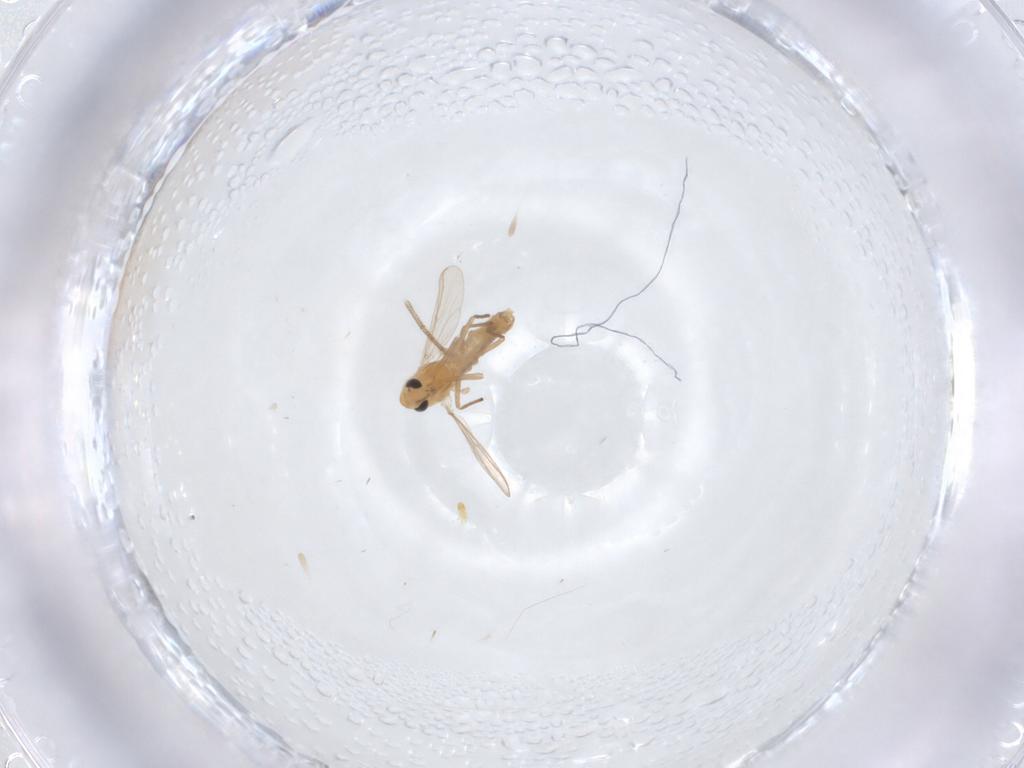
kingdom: Animalia
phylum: Arthropoda
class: Insecta
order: Diptera
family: Chironomidae
